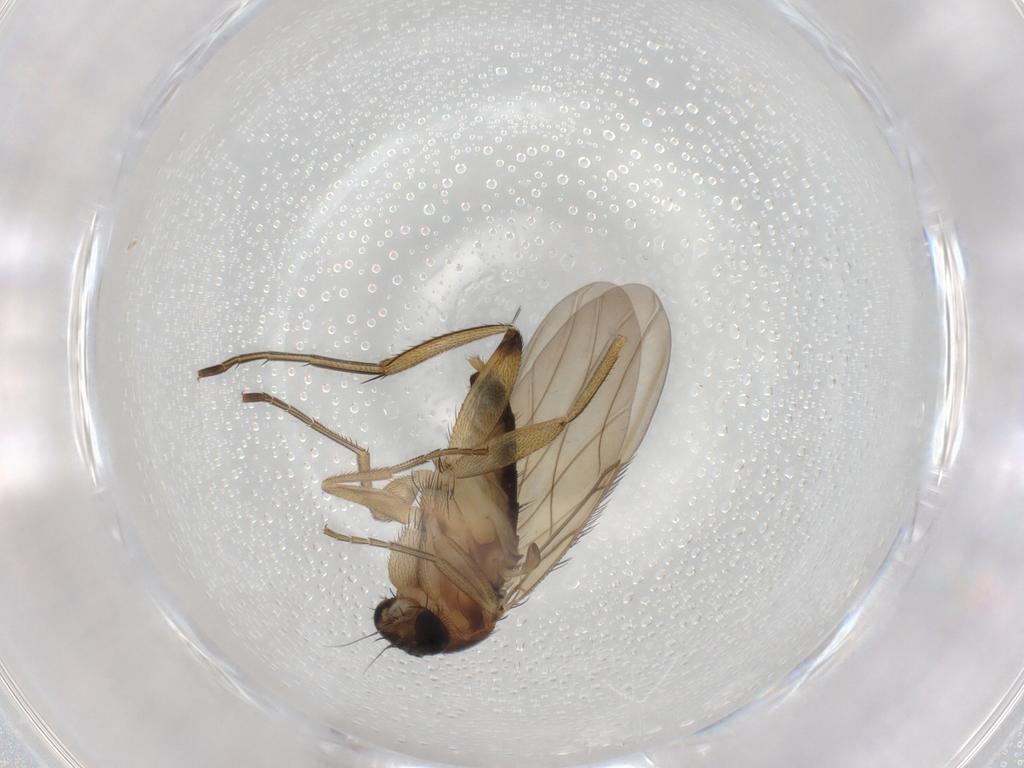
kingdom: Animalia
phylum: Arthropoda
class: Insecta
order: Diptera
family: Phoridae
